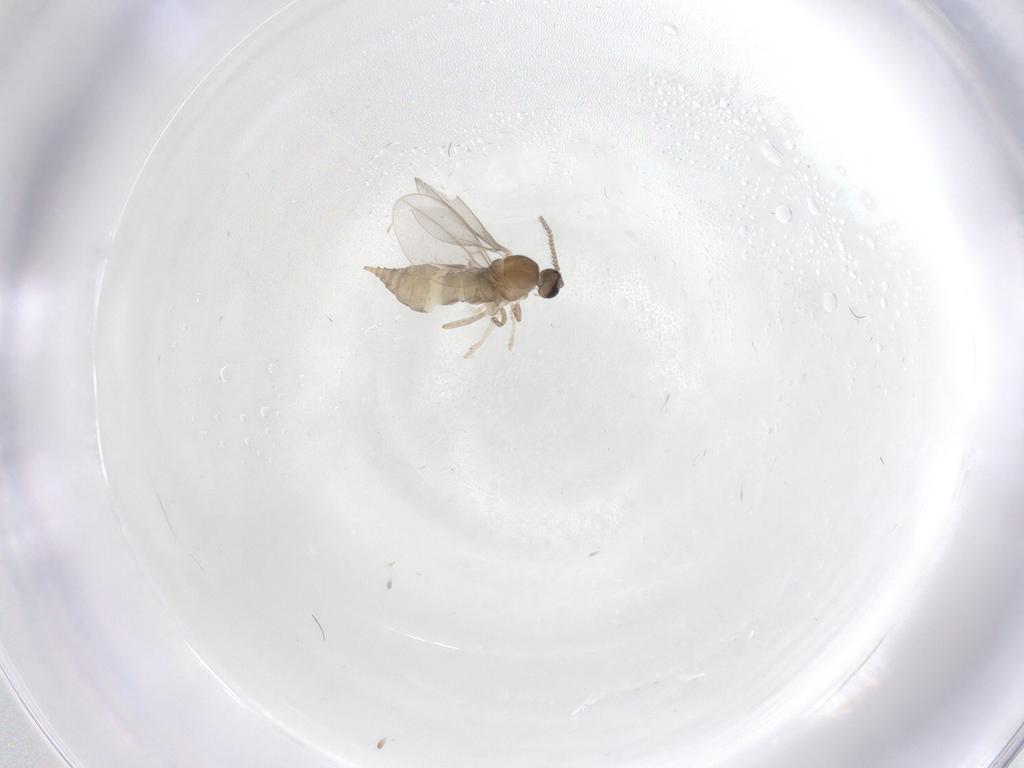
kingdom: Animalia
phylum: Arthropoda
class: Insecta
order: Diptera
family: Cecidomyiidae
